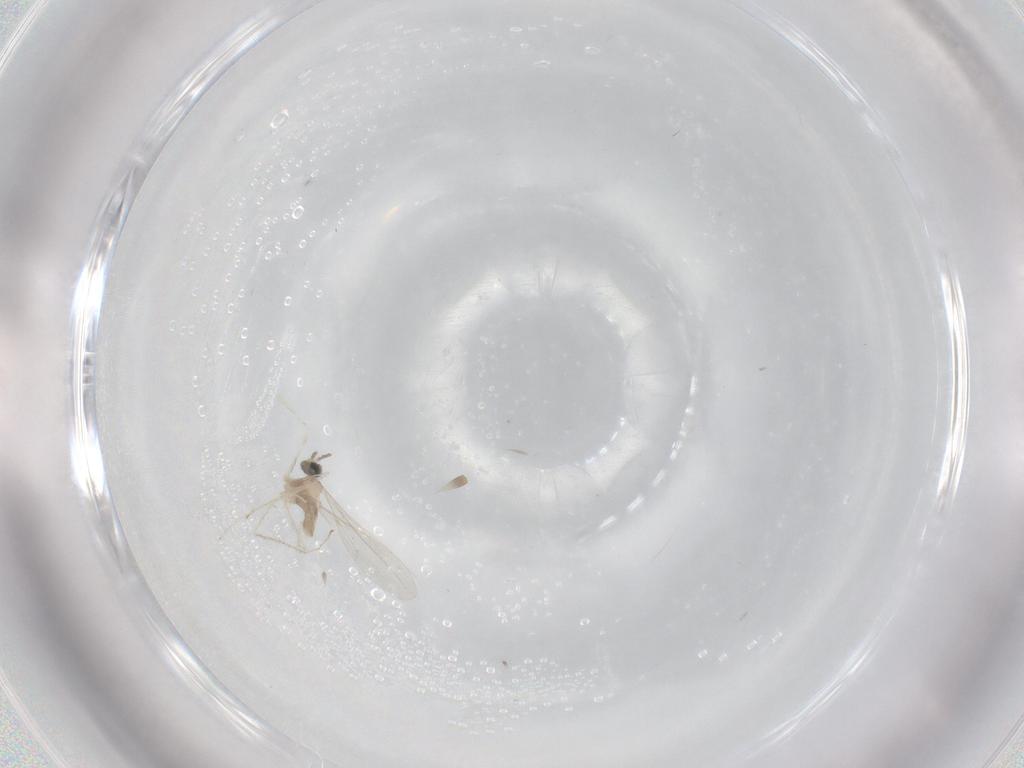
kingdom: Animalia
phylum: Arthropoda
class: Insecta
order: Diptera
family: Cecidomyiidae
